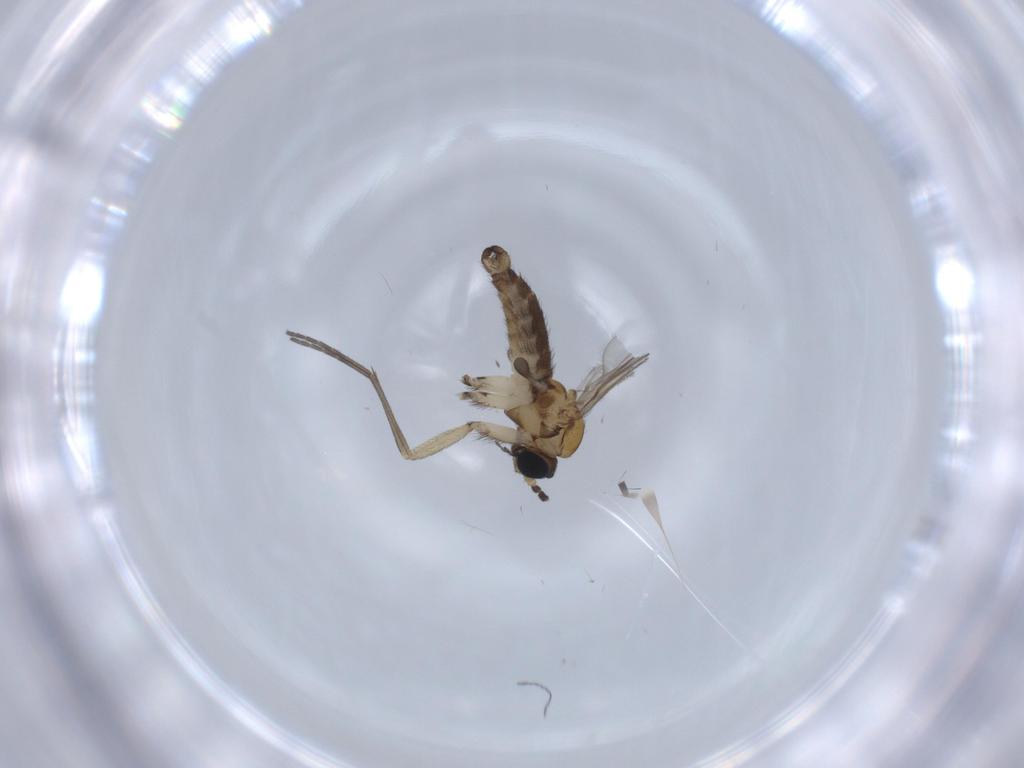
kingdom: Animalia
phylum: Arthropoda
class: Insecta
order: Diptera
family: Sciaridae
